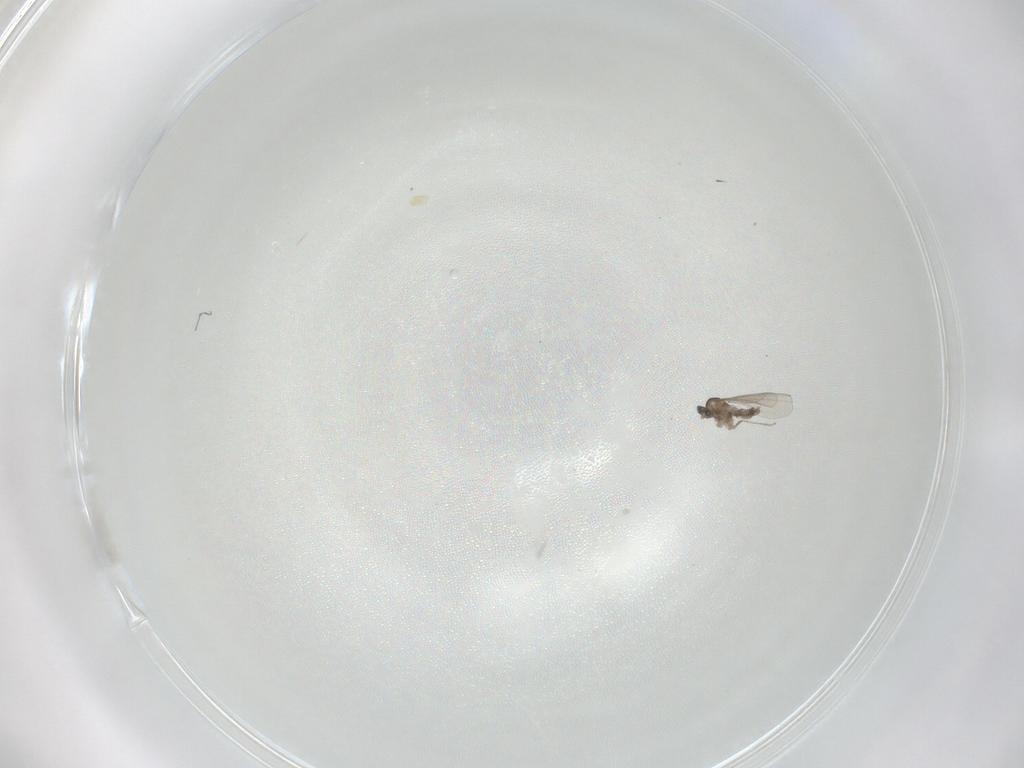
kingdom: Animalia
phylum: Arthropoda
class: Insecta
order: Diptera
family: Cecidomyiidae
